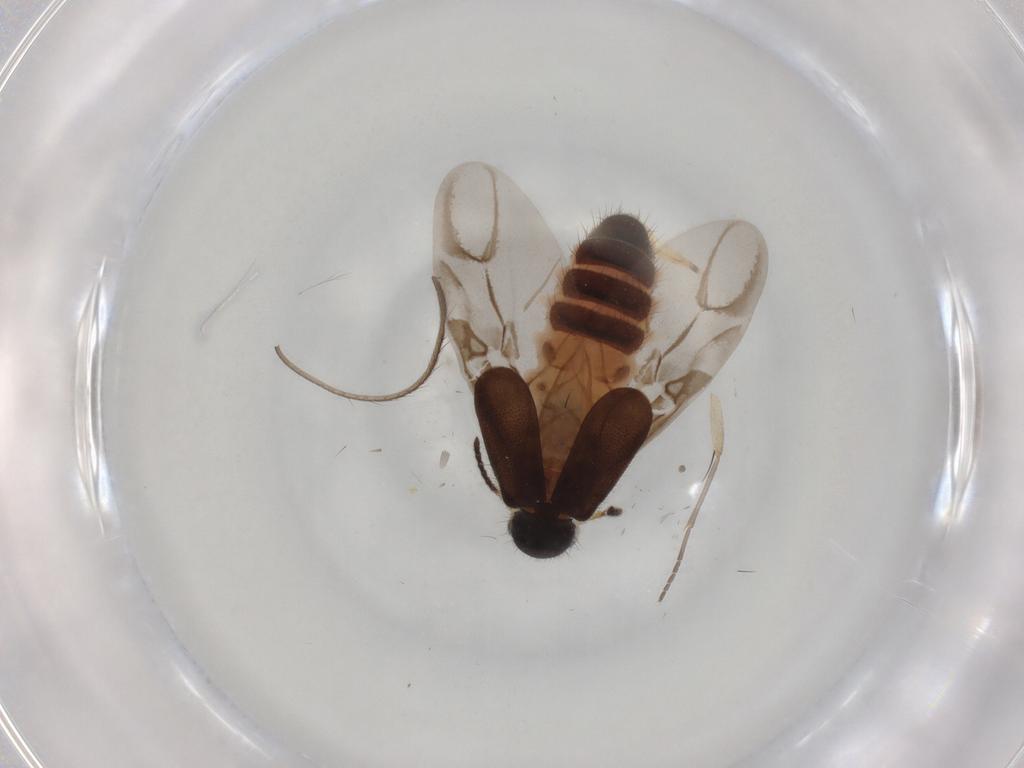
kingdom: Animalia
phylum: Arthropoda
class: Insecta
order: Coleoptera
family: Melyridae
